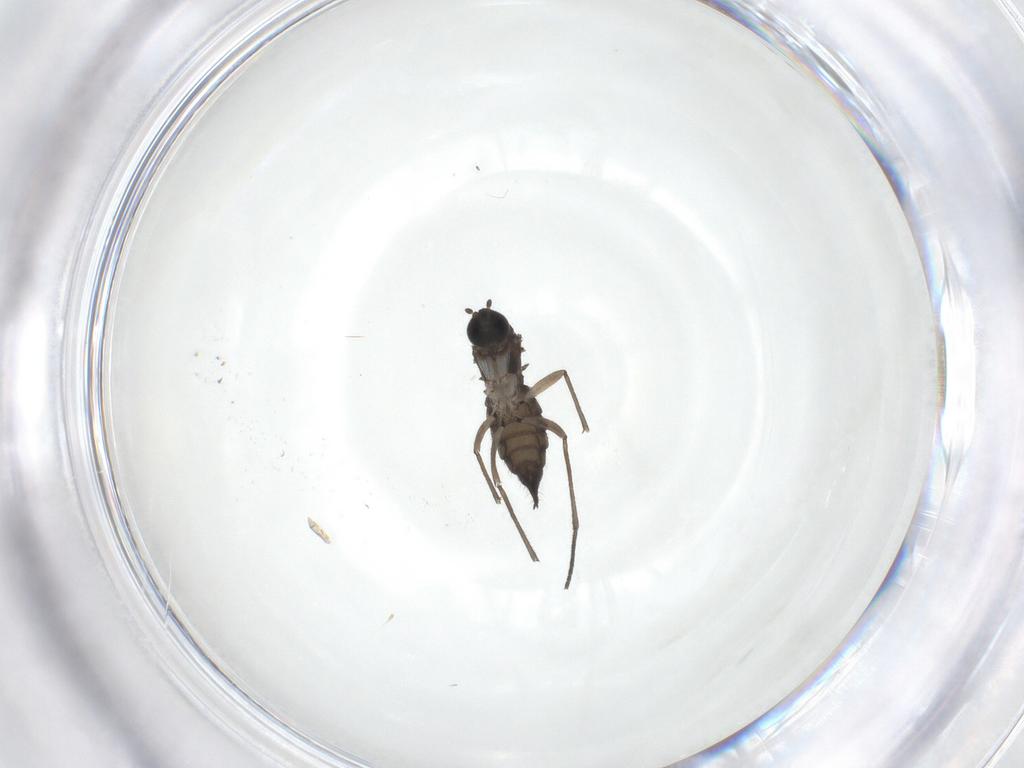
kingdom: Animalia
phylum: Arthropoda
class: Insecta
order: Diptera
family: Sciaridae
